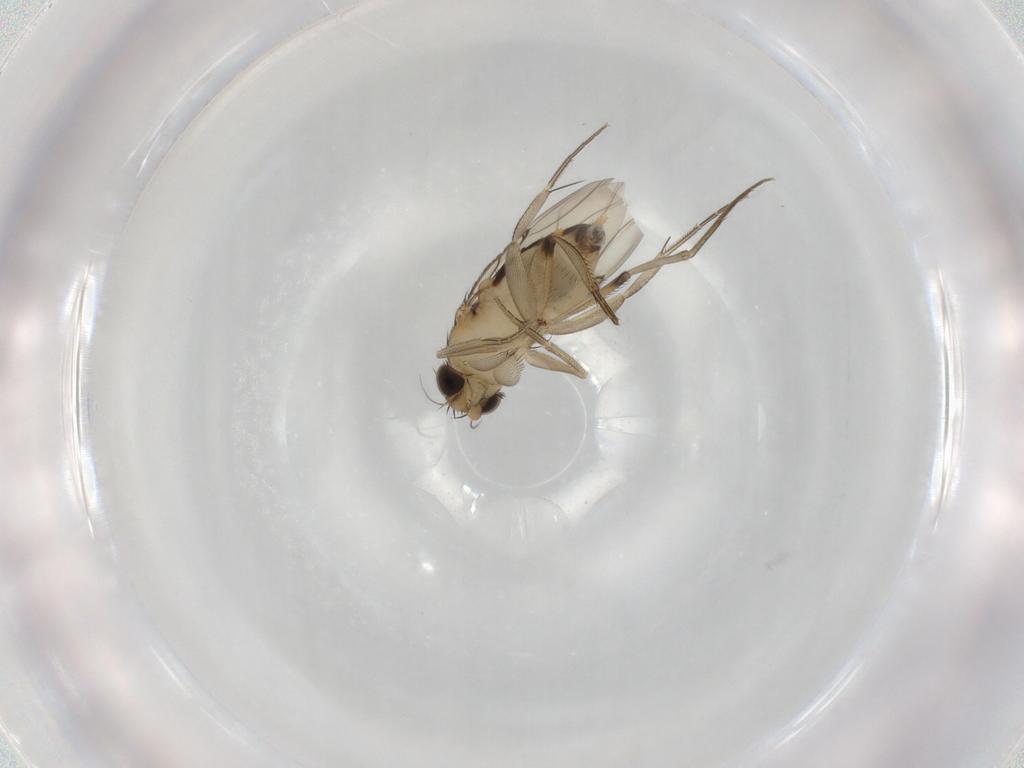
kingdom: Animalia
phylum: Arthropoda
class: Insecta
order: Diptera
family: Phoridae
